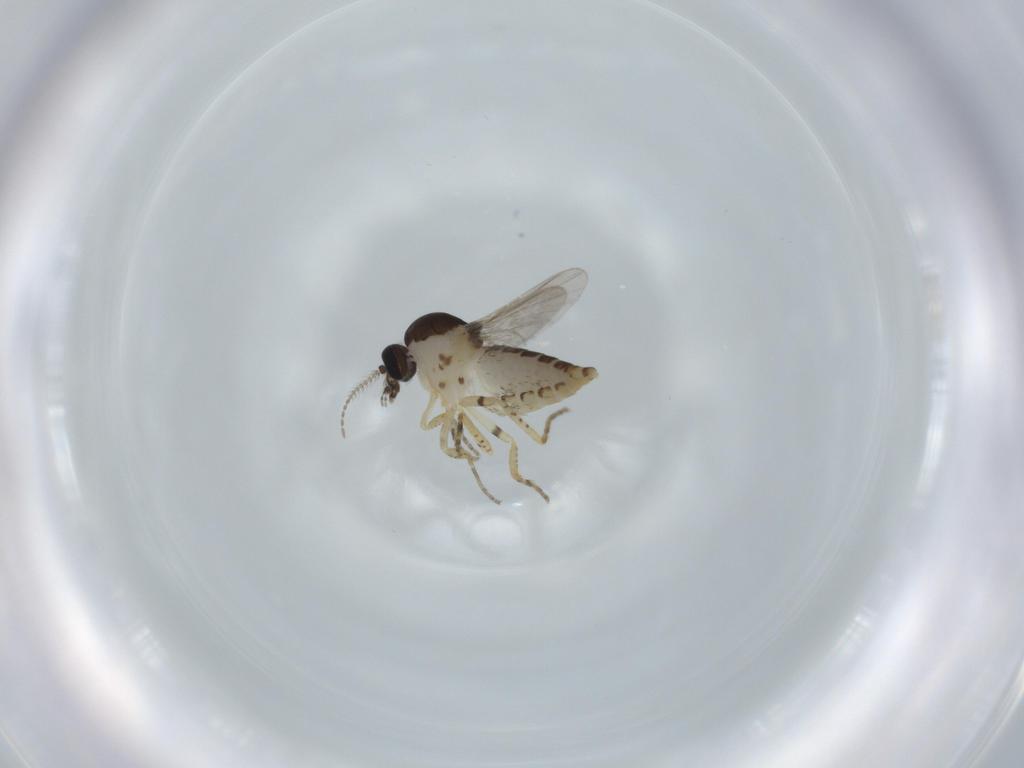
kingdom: Animalia
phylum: Arthropoda
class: Insecta
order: Diptera
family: Ceratopogonidae
